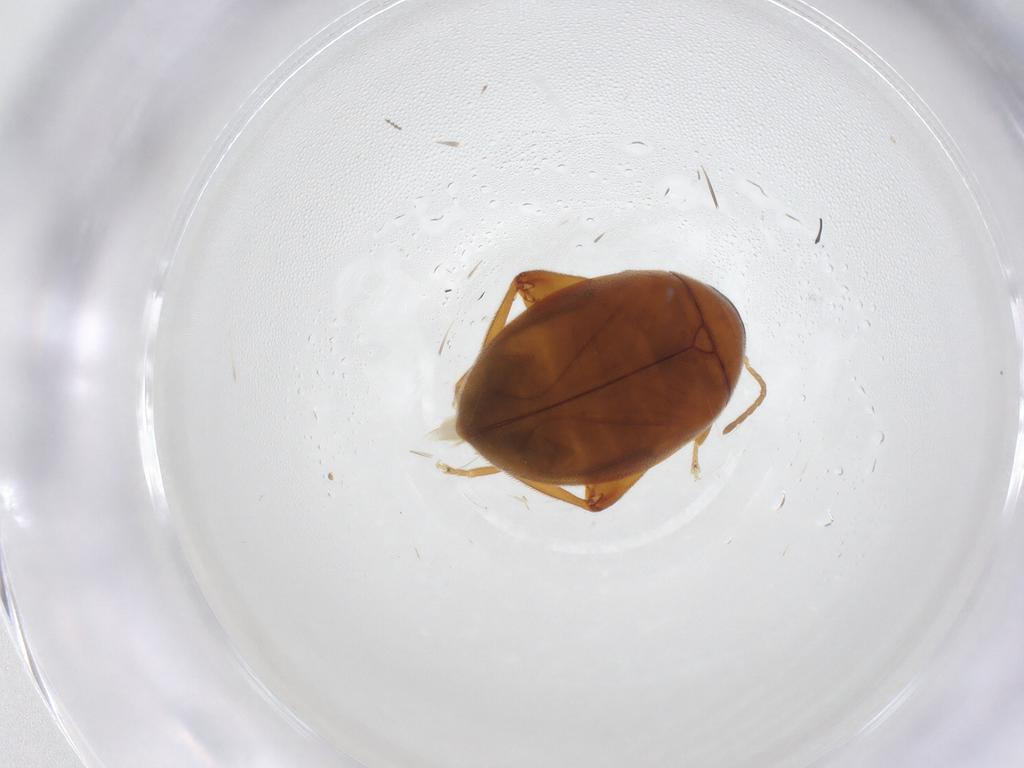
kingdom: Animalia
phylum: Arthropoda
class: Insecta
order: Coleoptera
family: Scirtidae
